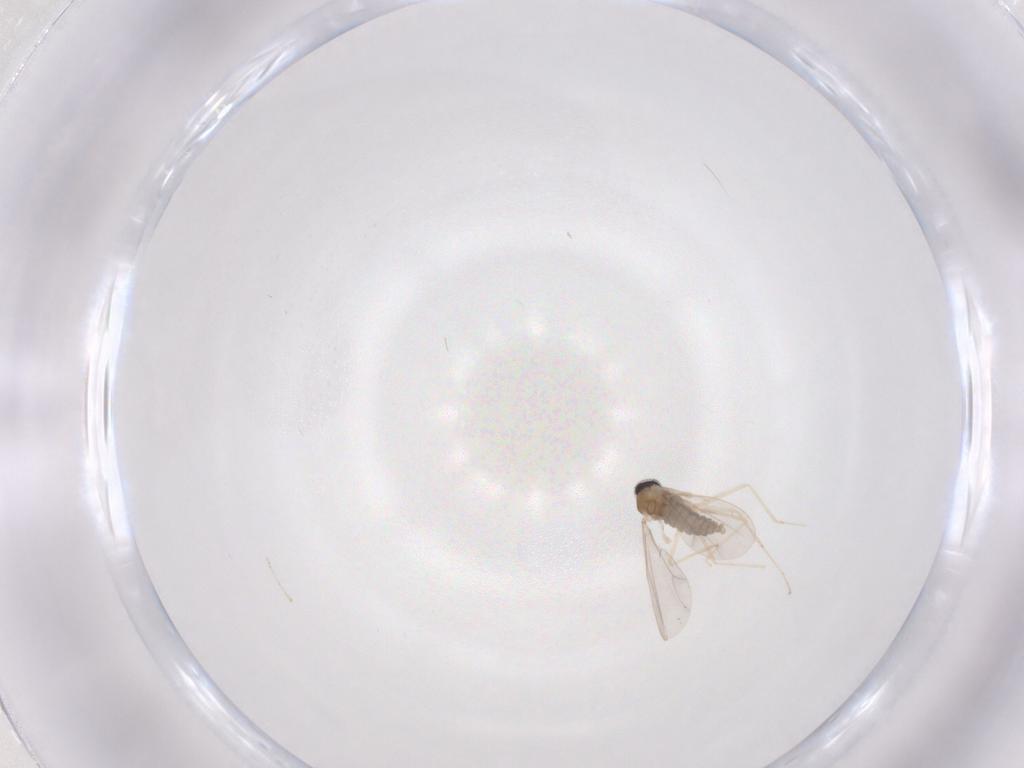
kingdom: Animalia
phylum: Arthropoda
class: Insecta
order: Diptera
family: Cecidomyiidae
